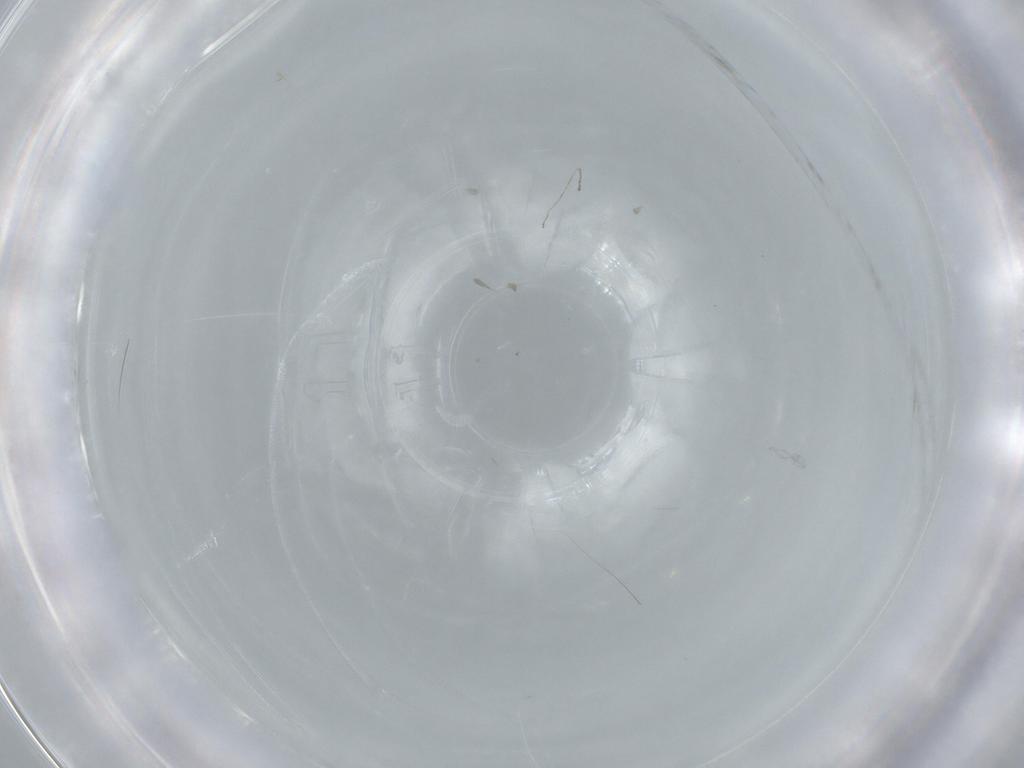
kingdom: Animalia
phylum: Arthropoda
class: Insecta
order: Diptera
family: Cecidomyiidae
